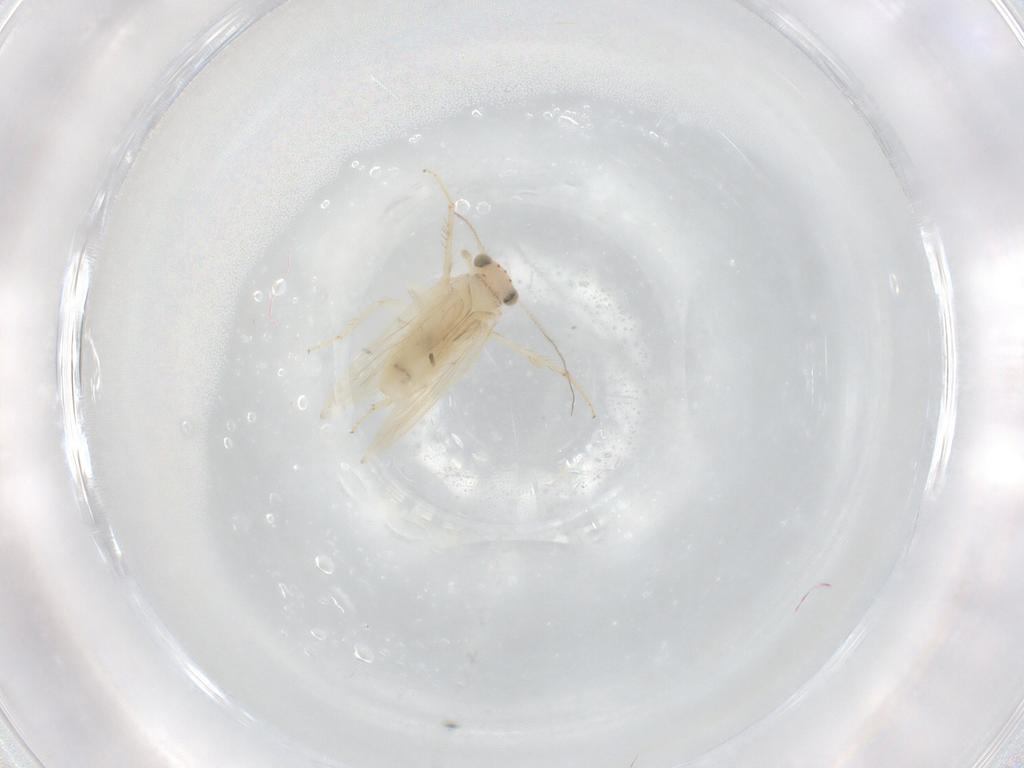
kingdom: Animalia
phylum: Arthropoda
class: Insecta
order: Psocodea
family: Lepidopsocidae
